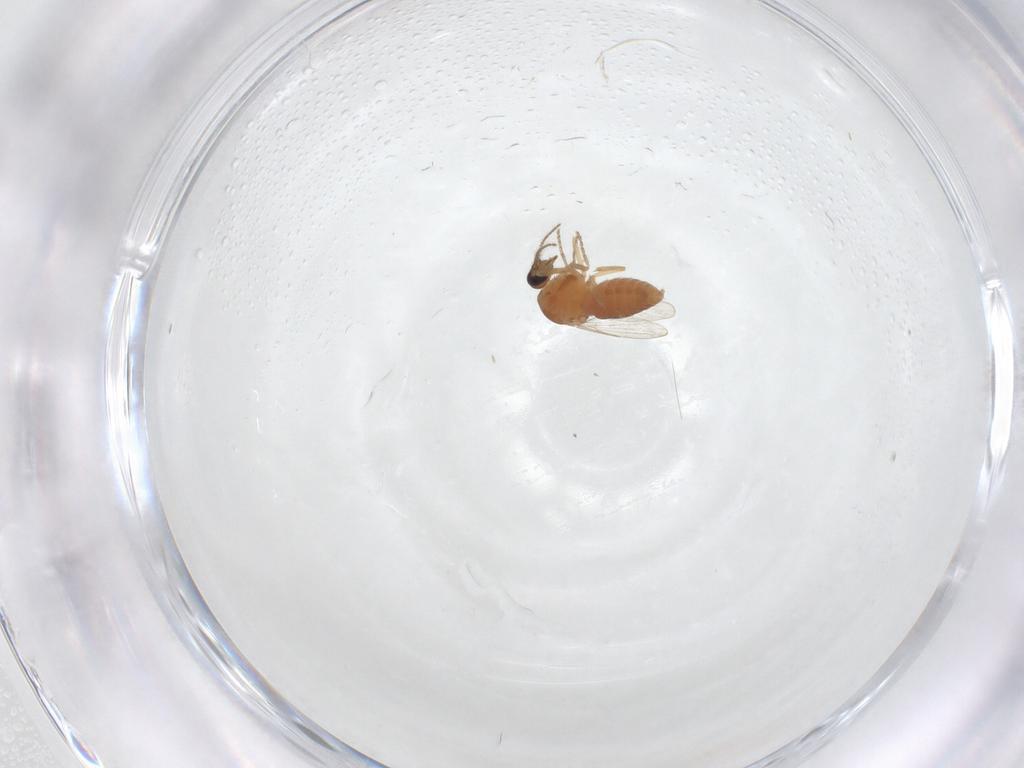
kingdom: Animalia
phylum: Arthropoda
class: Insecta
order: Diptera
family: Ceratopogonidae
